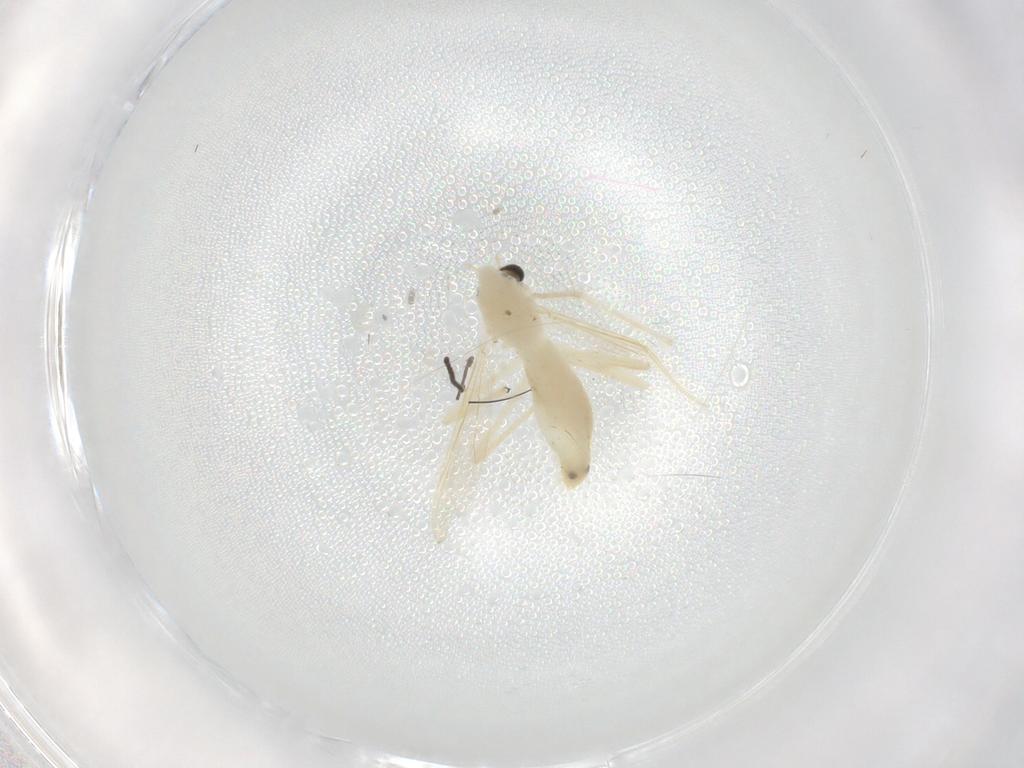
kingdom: Animalia
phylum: Arthropoda
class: Insecta
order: Diptera
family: Chironomidae
